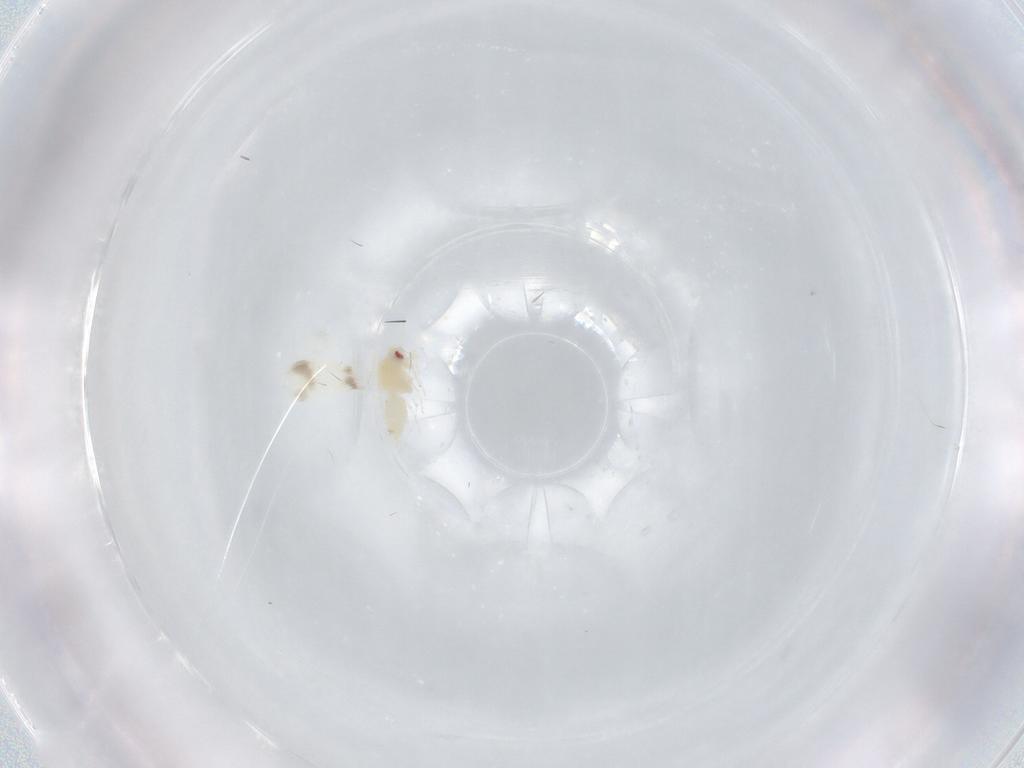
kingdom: Animalia
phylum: Arthropoda
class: Insecta
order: Hemiptera
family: Aleyrodidae
